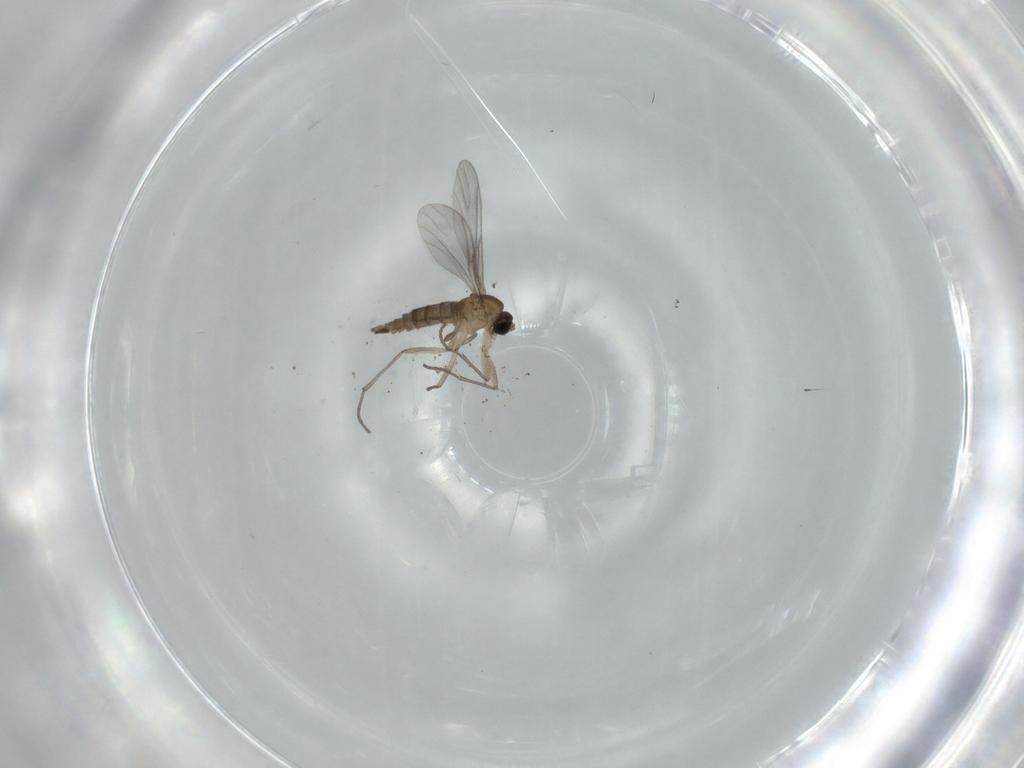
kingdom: Animalia
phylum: Arthropoda
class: Insecta
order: Diptera
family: Sciaridae
